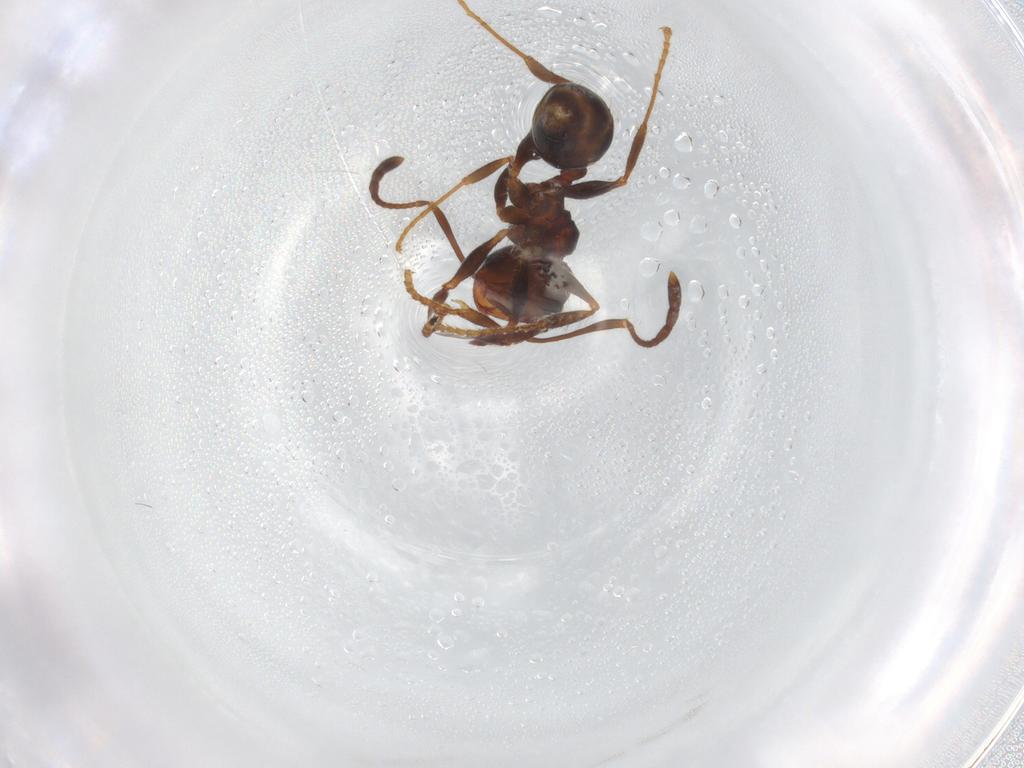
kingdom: Animalia
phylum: Arthropoda
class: Insecta
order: Hymenoptera
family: Formicidae
